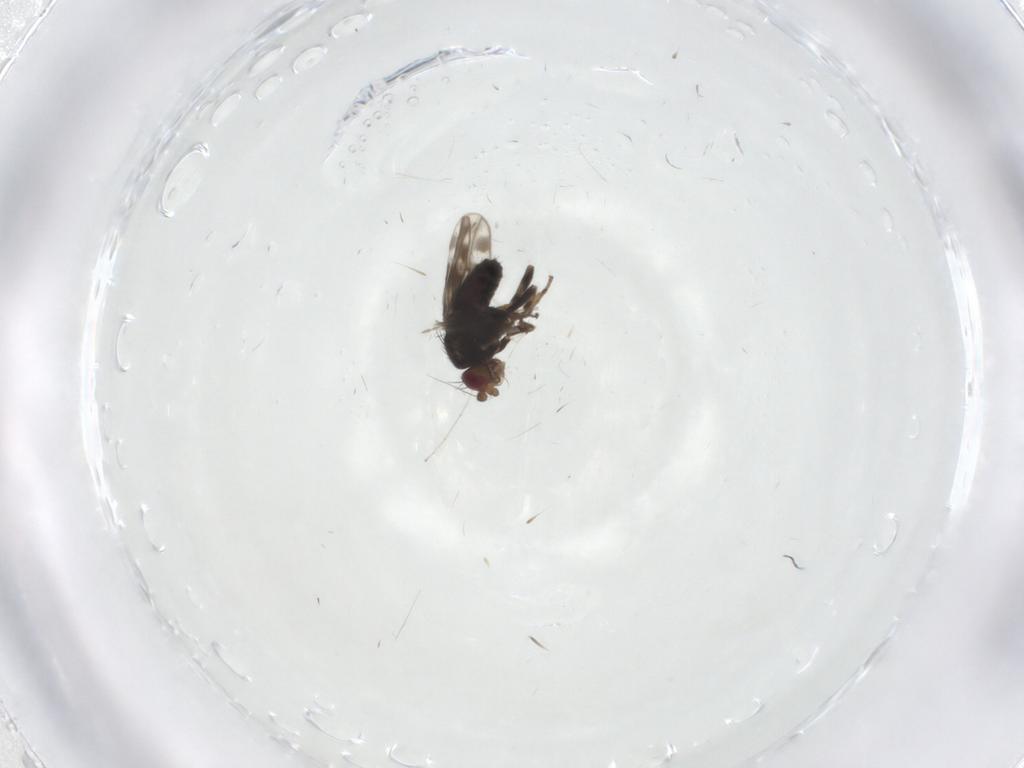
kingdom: Animalia
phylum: Arthropoda
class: Insecta
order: Diptera
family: Sphaeroceridae
